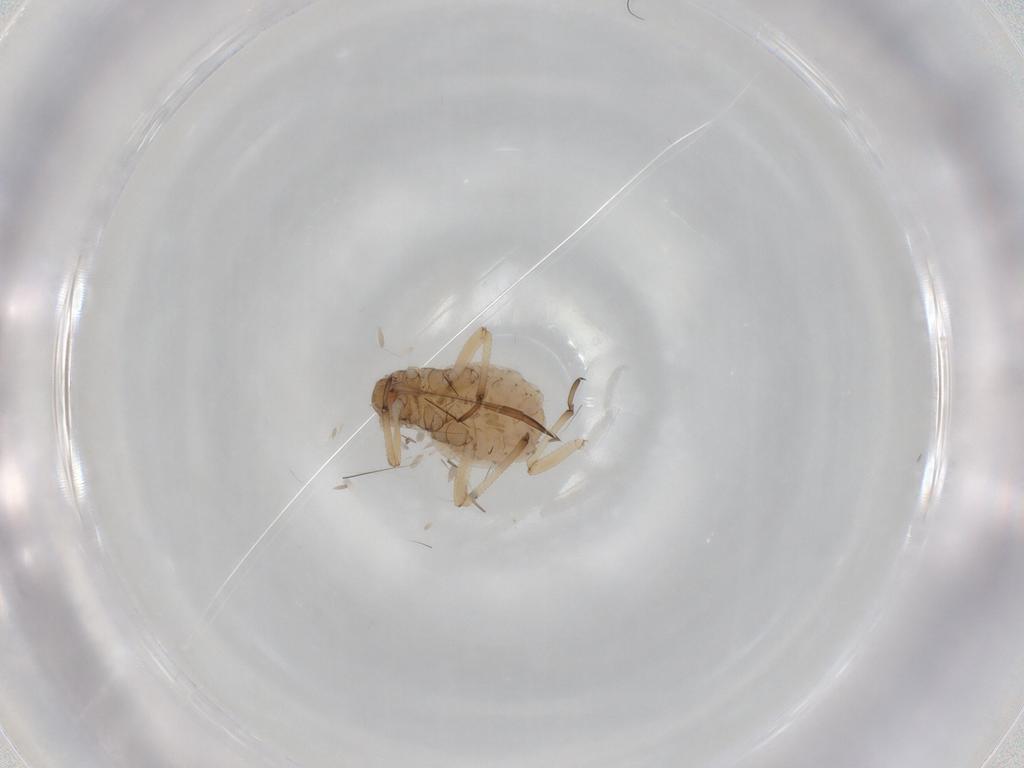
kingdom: Animalia
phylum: Arthropoda
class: Insecta
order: Hemiptera
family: Aphididae
